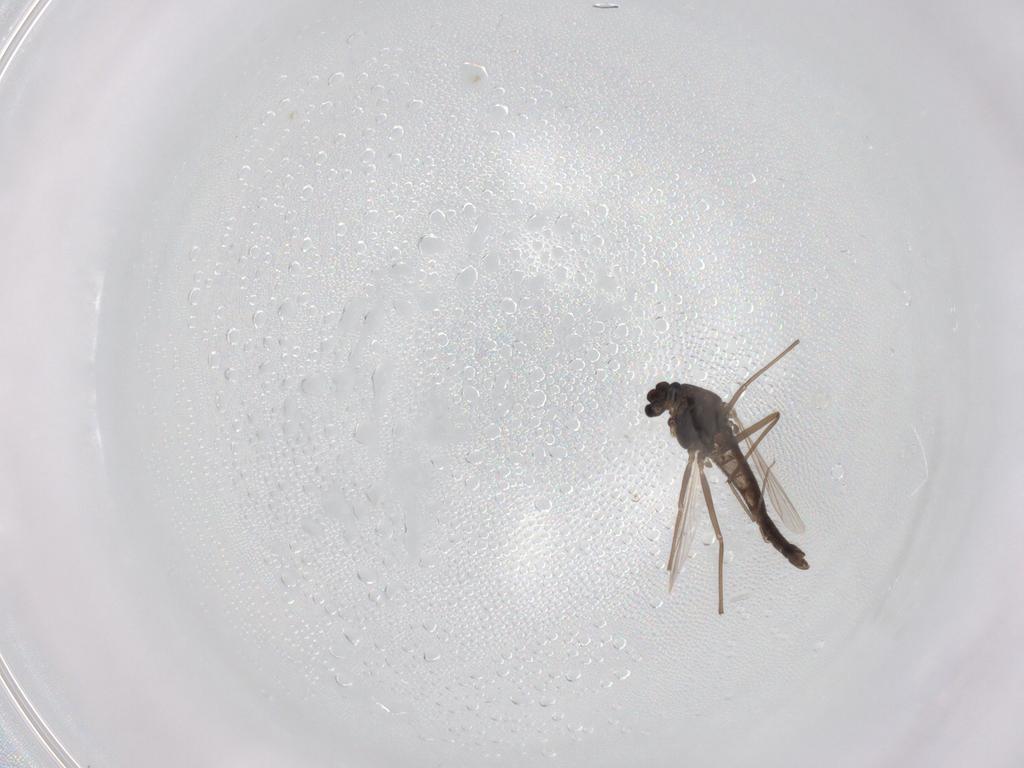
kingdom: Animalia
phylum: Arthropoda
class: Insecta
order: Diptera
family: Chironomidae
